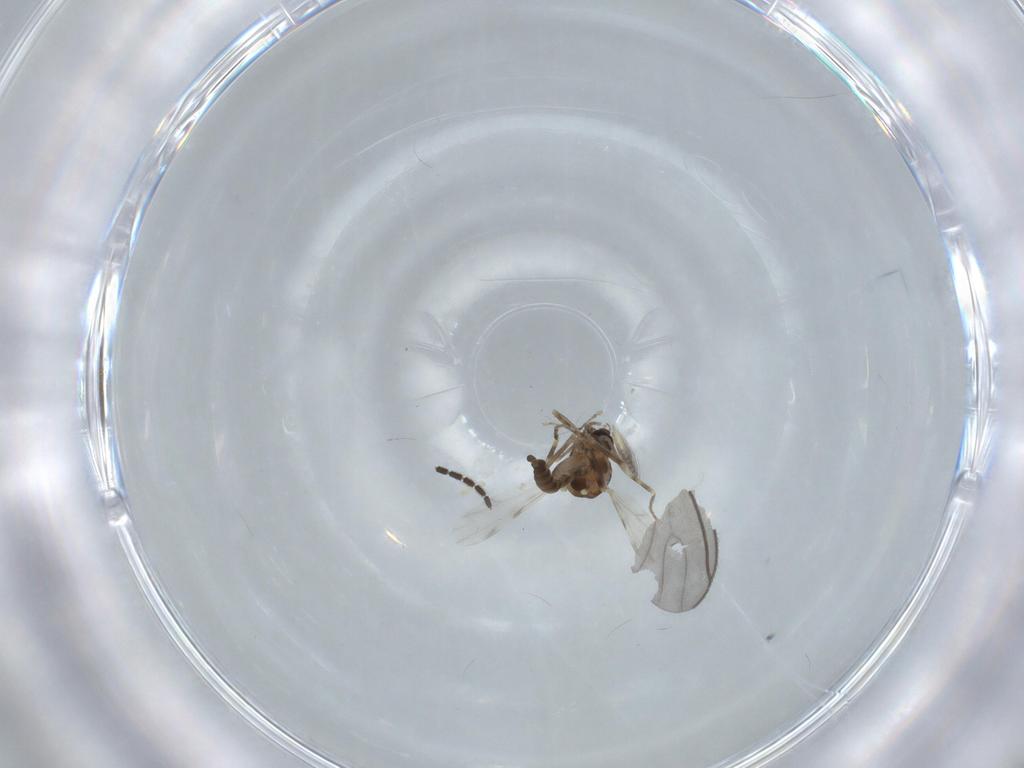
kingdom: Animalia
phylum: Arthropoda
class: Insecta
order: Diptera
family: Ceratopogonidae
